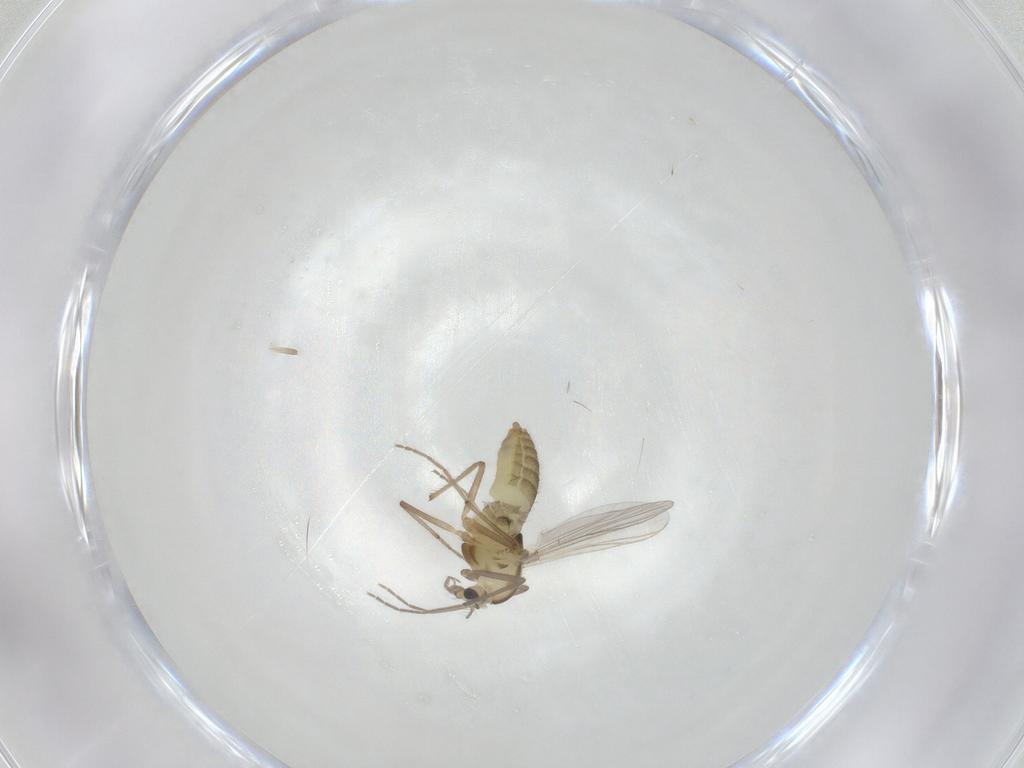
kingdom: Animalia
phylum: Arthropoda
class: Insecta
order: Diptera
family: Chironomidae
